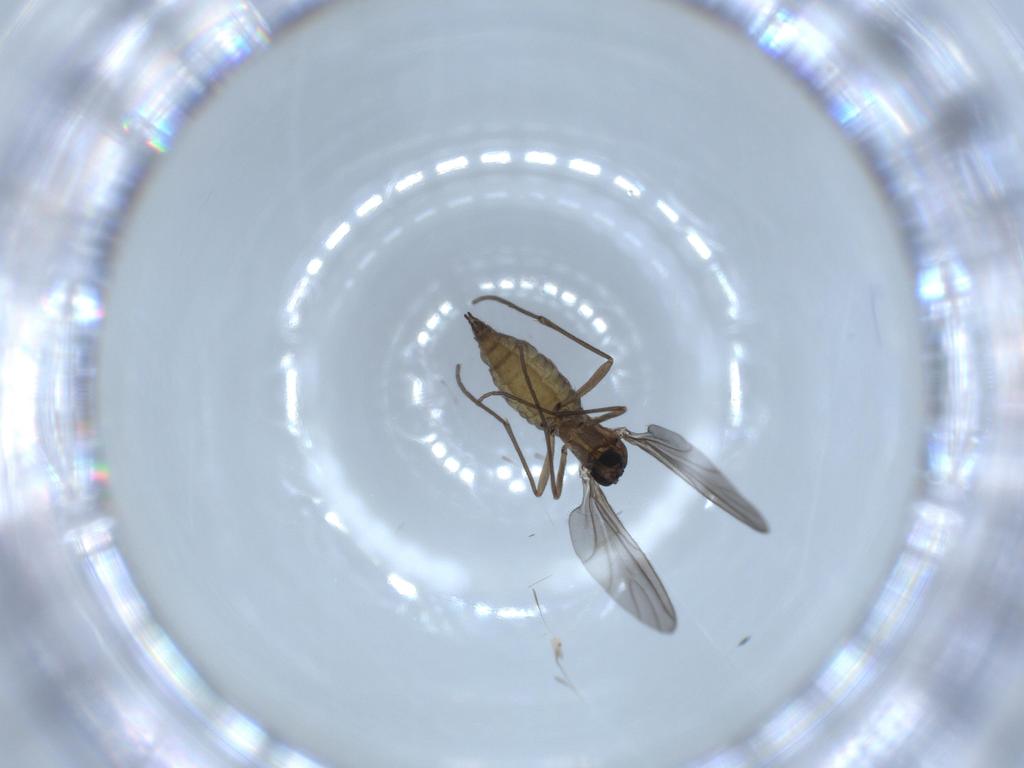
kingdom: Animalia
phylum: Arthropoda
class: Insecta
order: Diptera
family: Sciaridae
